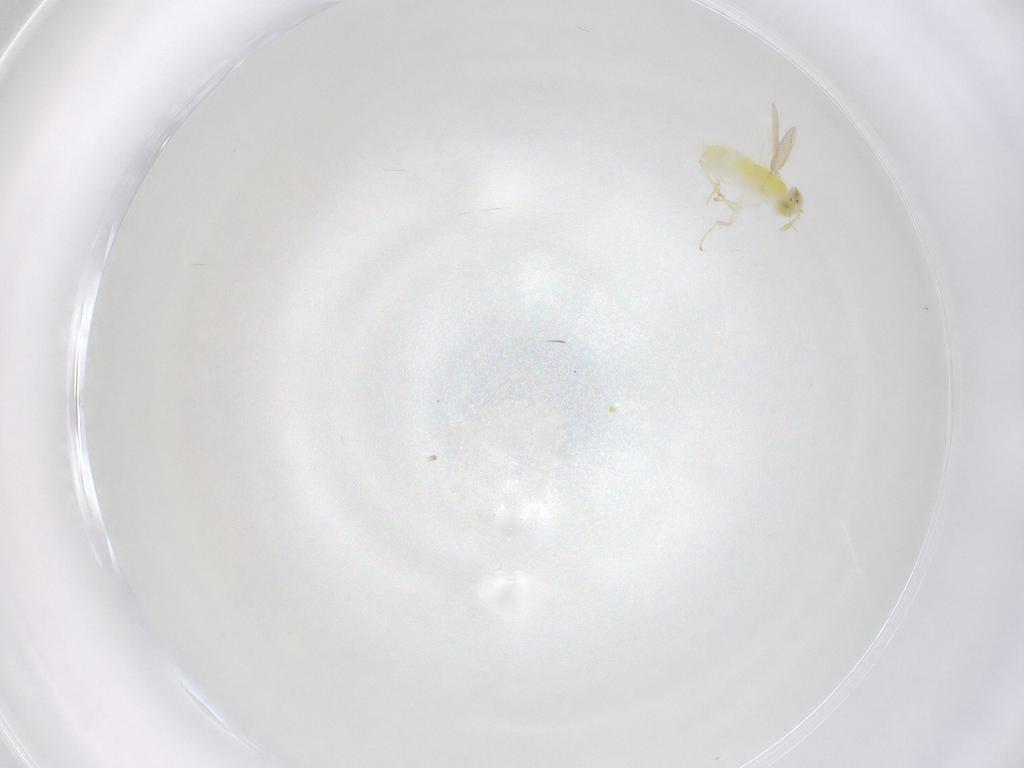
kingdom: Animalia
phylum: Arthropoda
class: Insecta
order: Hymenoptera
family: Aphelinidae
